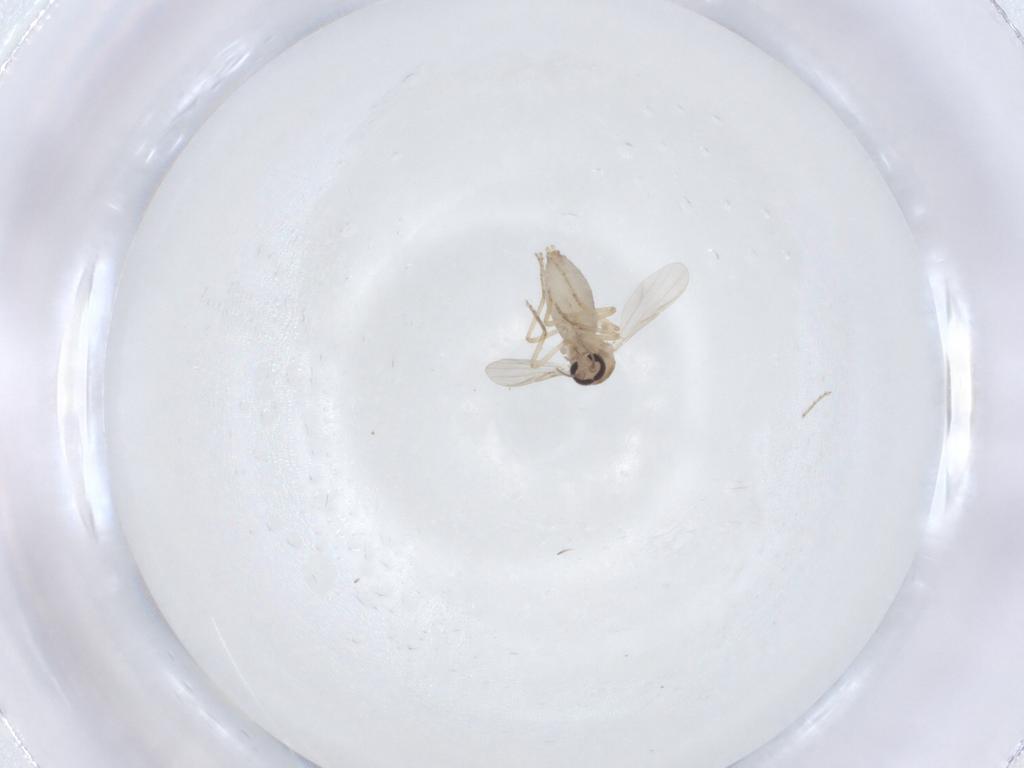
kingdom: Animalia
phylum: Arthropoda
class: Insecta
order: Diptera
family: Ceratopogonidae
